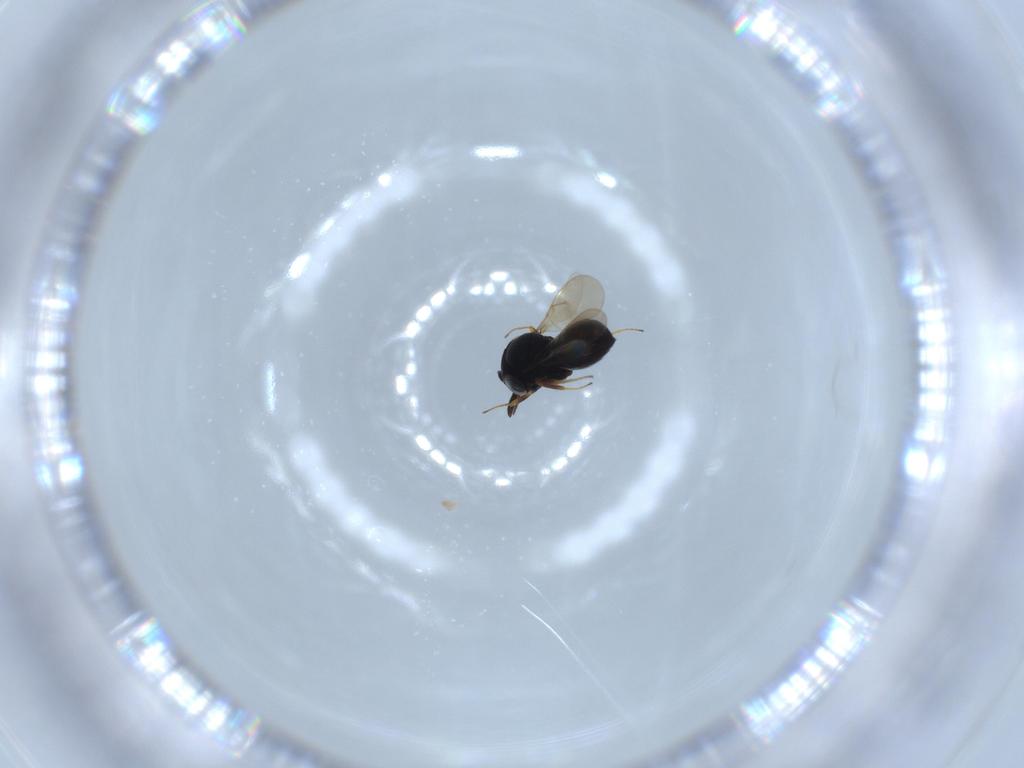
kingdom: Animalia
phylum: Arthropoda
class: Insecta
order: Hymenoptera
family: Scelionidae
